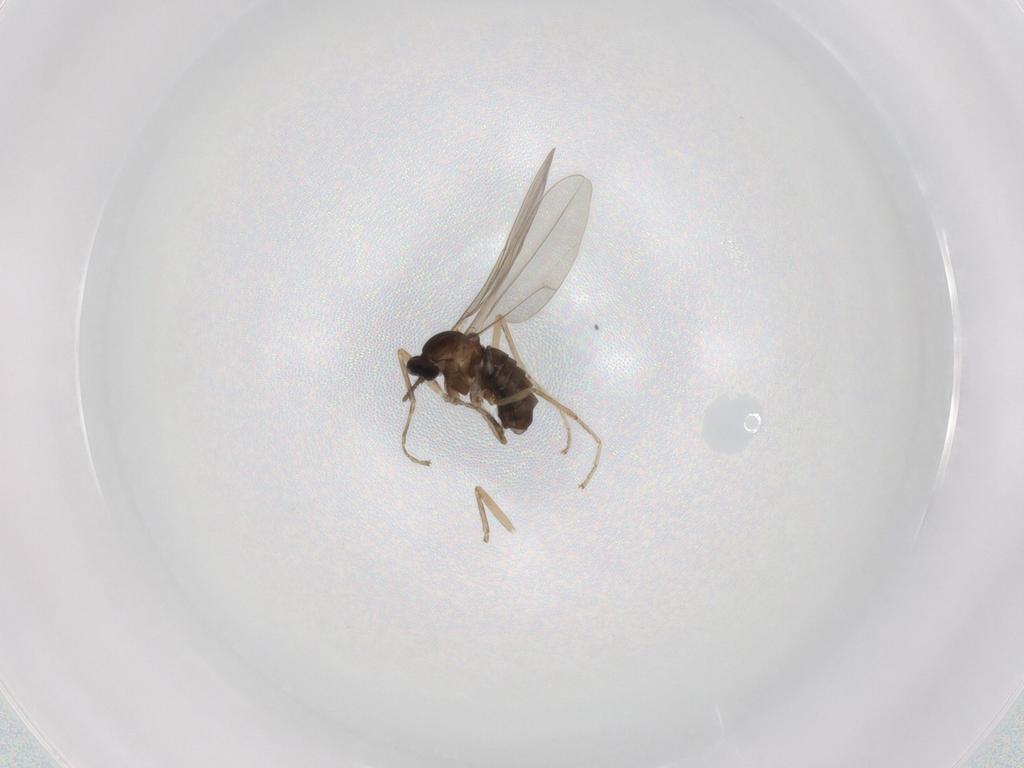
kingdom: Animalia
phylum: Arthropoda
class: Insecta
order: Diptera
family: Cecidomyiidae
